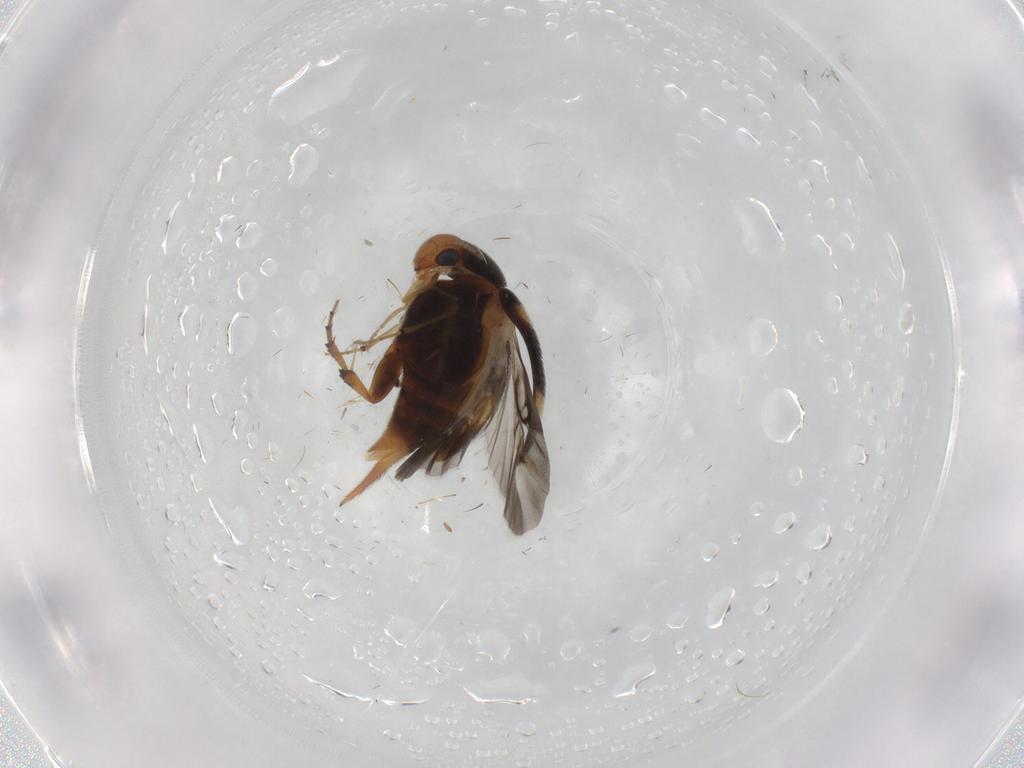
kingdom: Animalia
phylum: Arthropoda
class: Insecta
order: Coleoptera
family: Mordellidae
